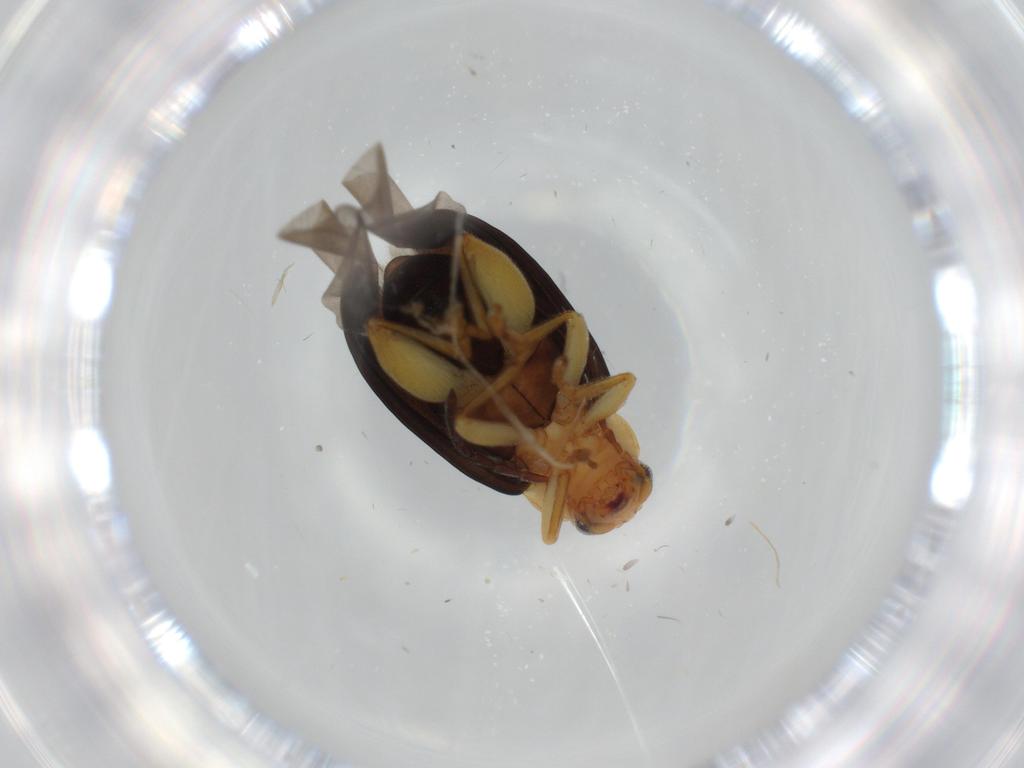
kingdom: Animalia
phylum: Arthropoda
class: Insecta
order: Coleoptera
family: Chrysomelidae
